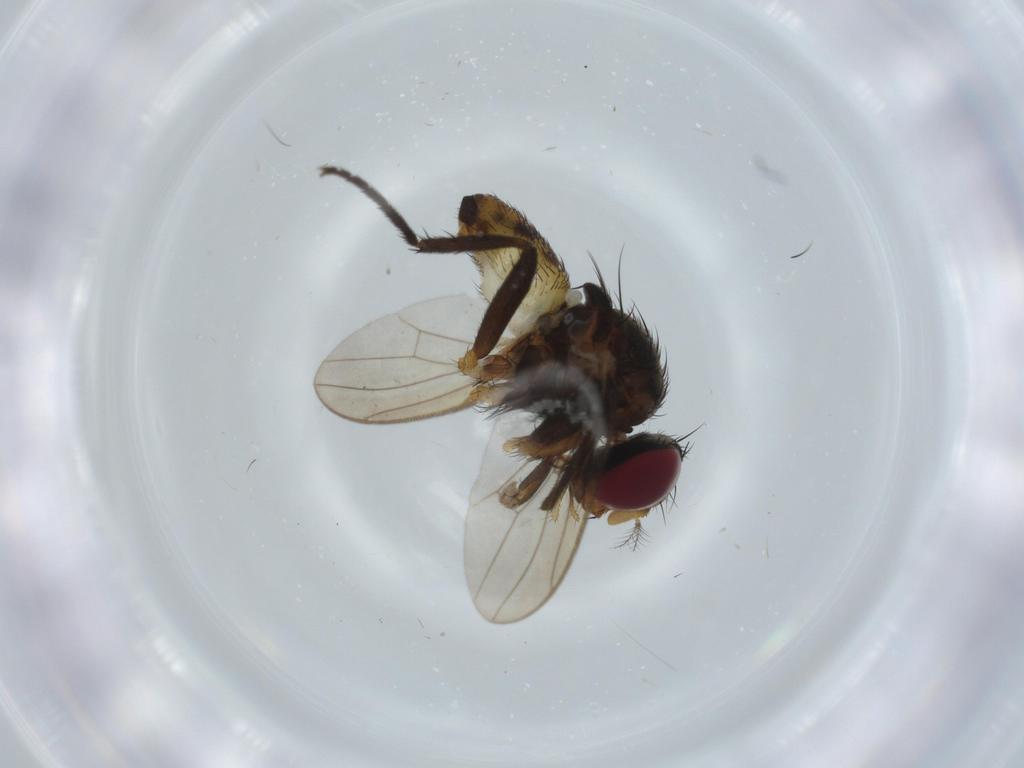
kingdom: Animalia
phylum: Arthropoda
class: Insecta
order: Diptera
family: Anthomyiidae
